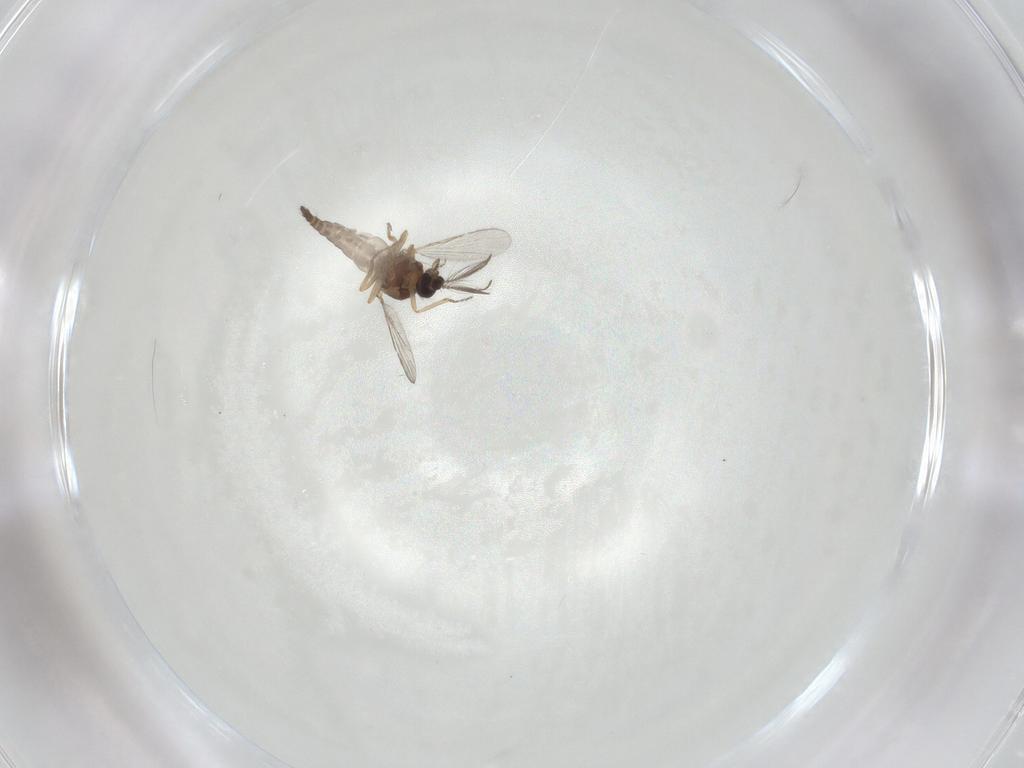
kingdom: Animalia
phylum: Arthropoda
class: Insecta
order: Diptera
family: Ceratopogonidae
